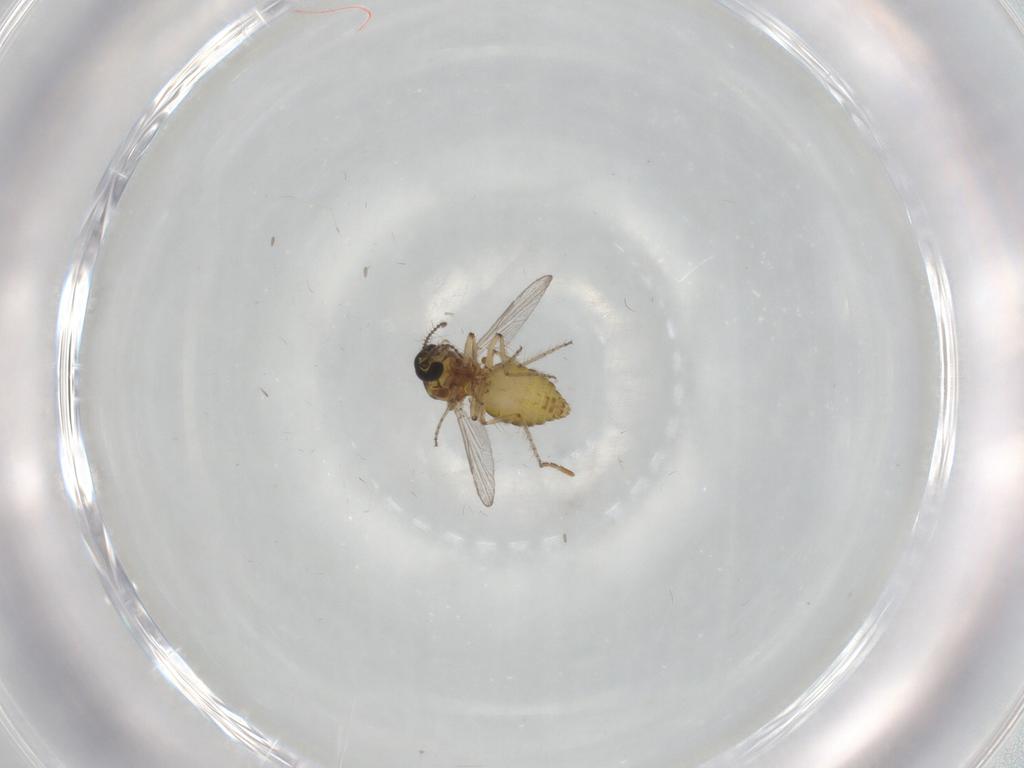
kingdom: Animalia
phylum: Arthropoda
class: Insecta
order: Diptera
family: Ceratopogonidae
